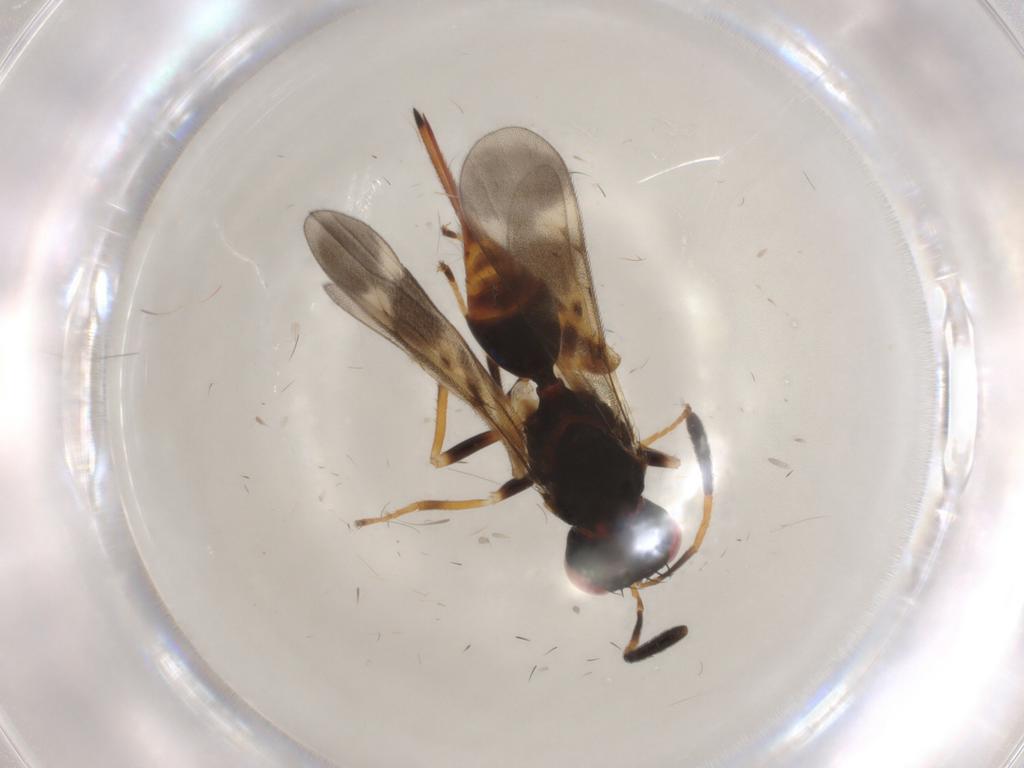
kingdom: Animalia
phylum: Arthropoda
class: Insecta
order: Hymenoptera
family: Diparidae
